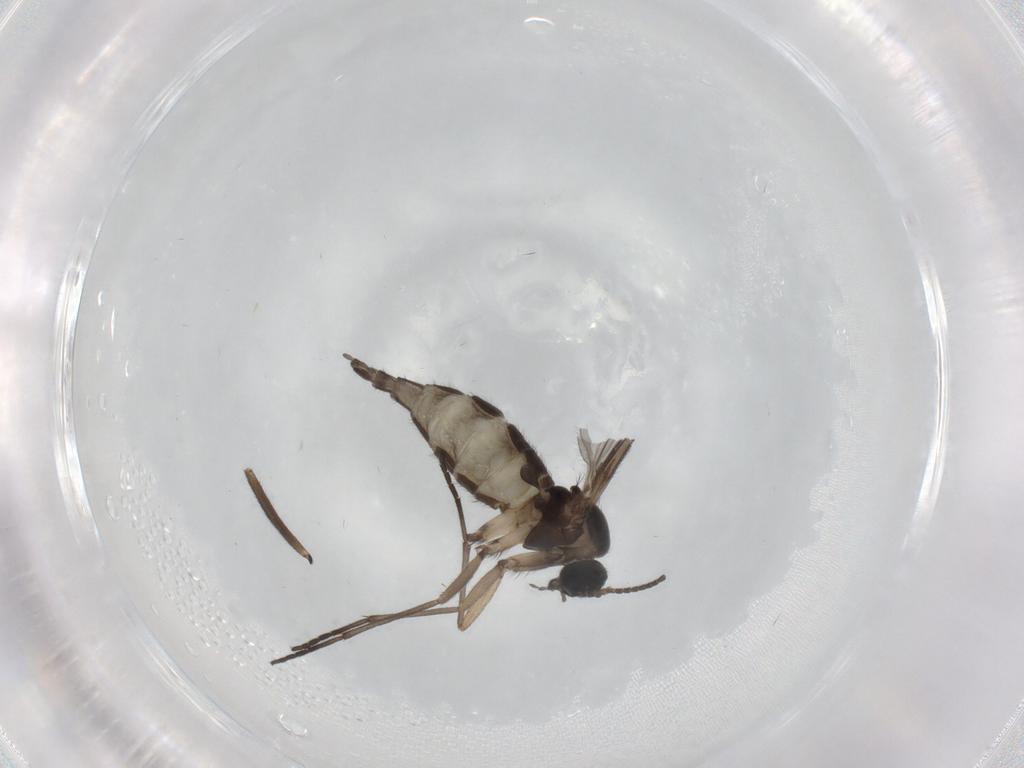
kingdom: Animalia
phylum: Arthropoda
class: Insecta
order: Diptera
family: Sciaridae
